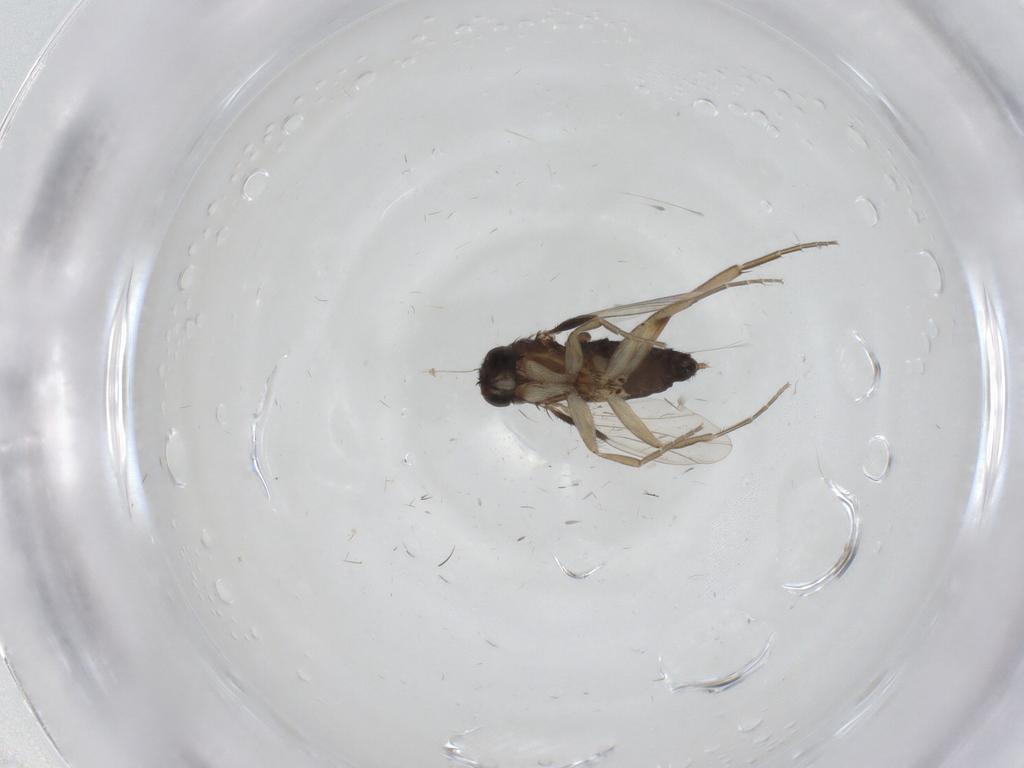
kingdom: Animalia
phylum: Arthropoda
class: Insecta
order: Diptera
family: Ceratopogonidae
